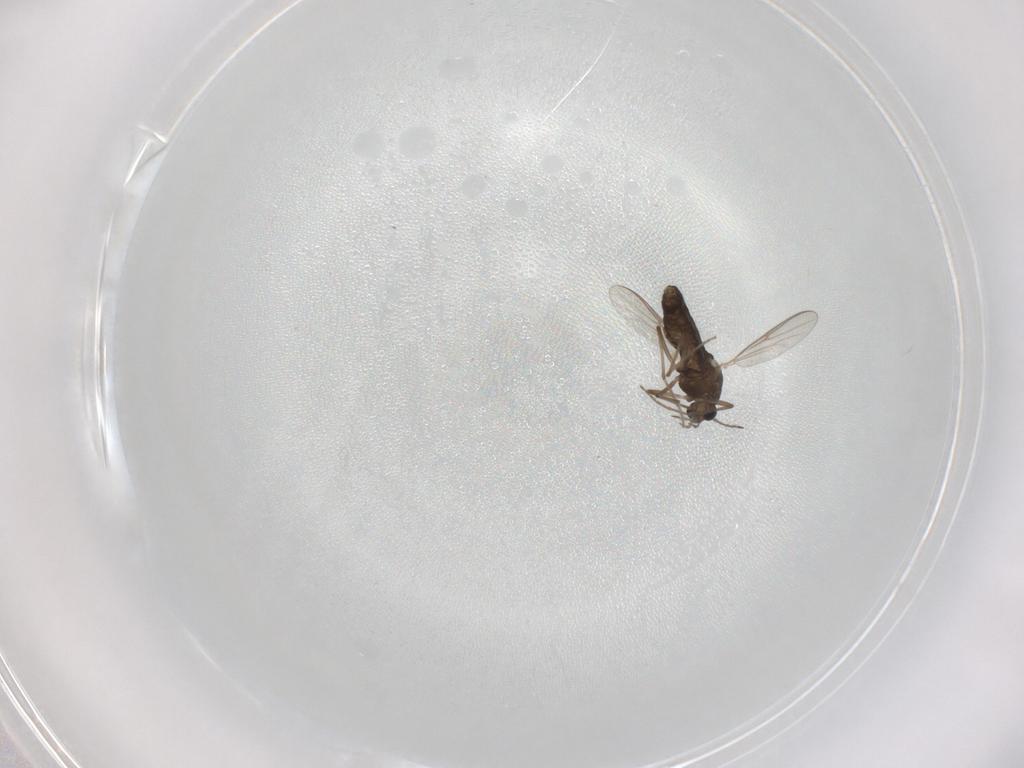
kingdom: Animalia
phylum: Arthropoda
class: Insecta
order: Diptera
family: Chironomidae
